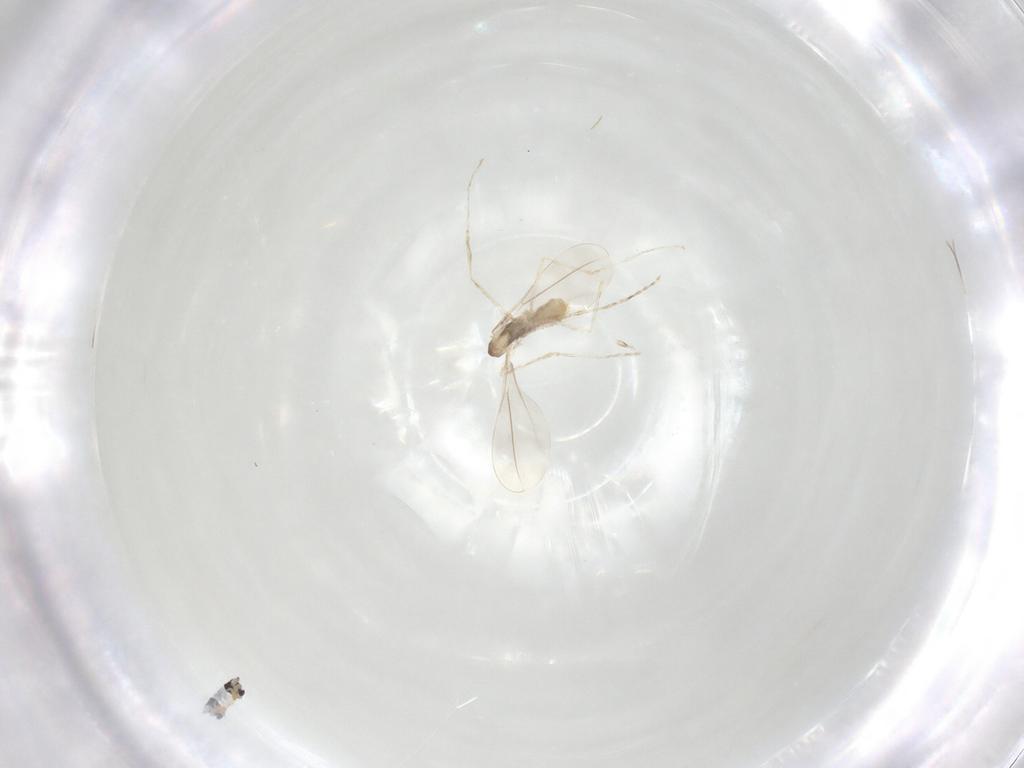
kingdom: Animalia
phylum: Arthropoda
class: Insecta
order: Diptera
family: Cecidomyiidae
